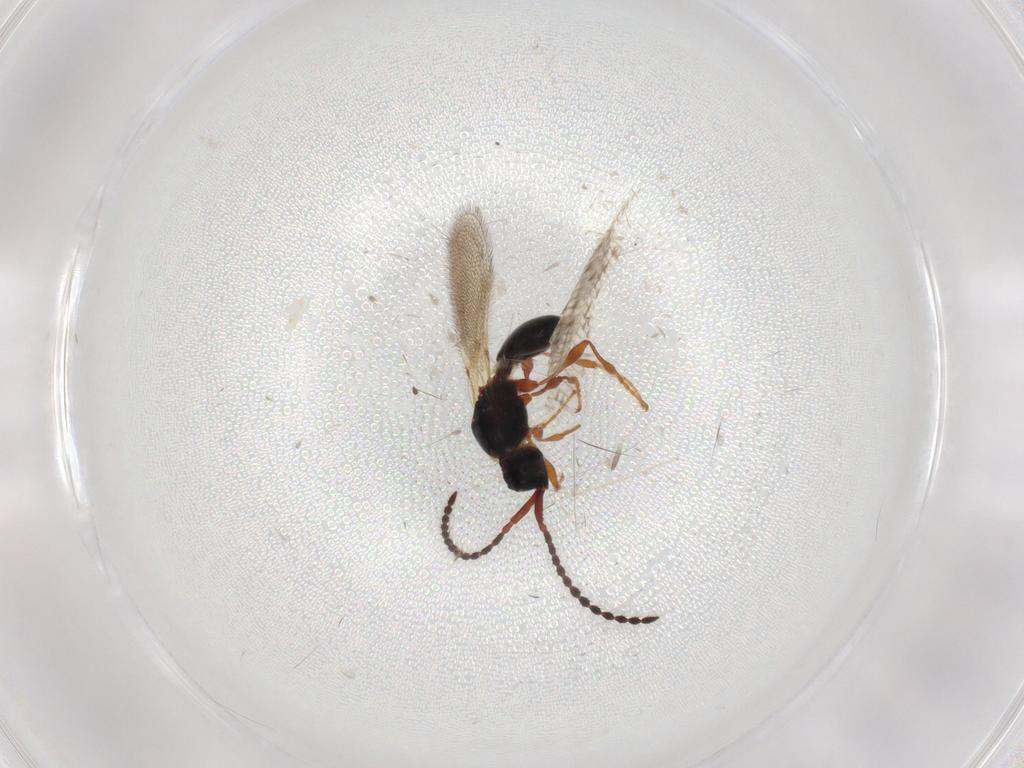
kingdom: Animalia
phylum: Arthropoda
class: Insecta
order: Hymenoptera
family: Diapriidae
